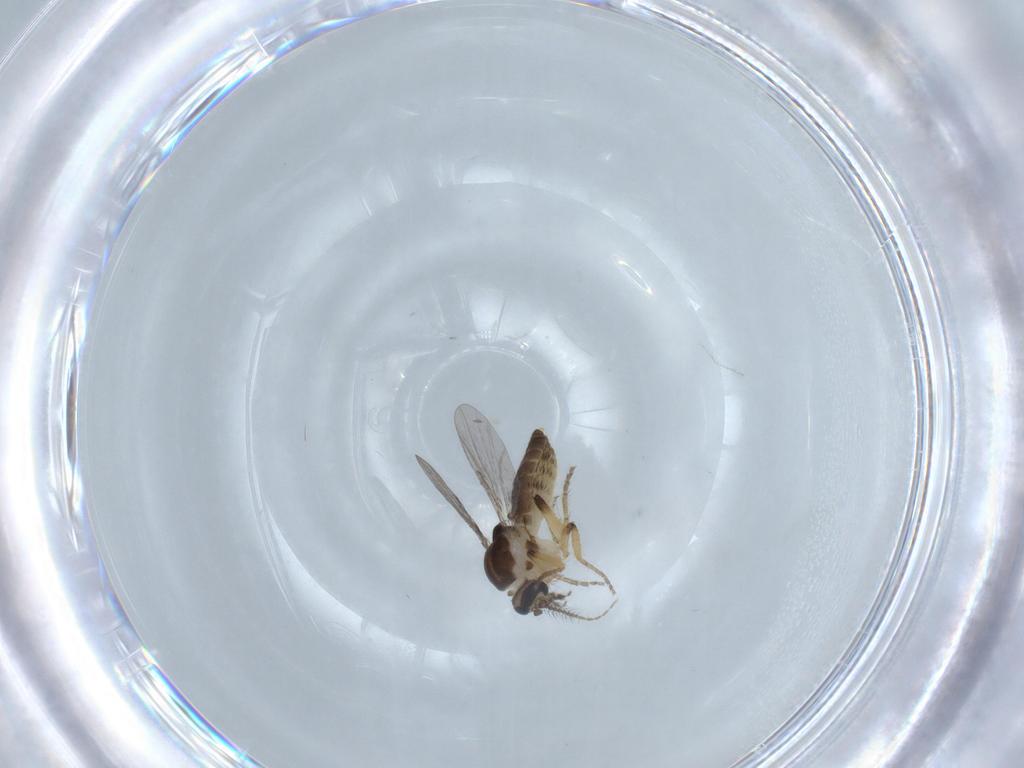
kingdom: Animalia
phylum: Arthropoda
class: Insecta
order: Diptera
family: Ceratopogonidae
